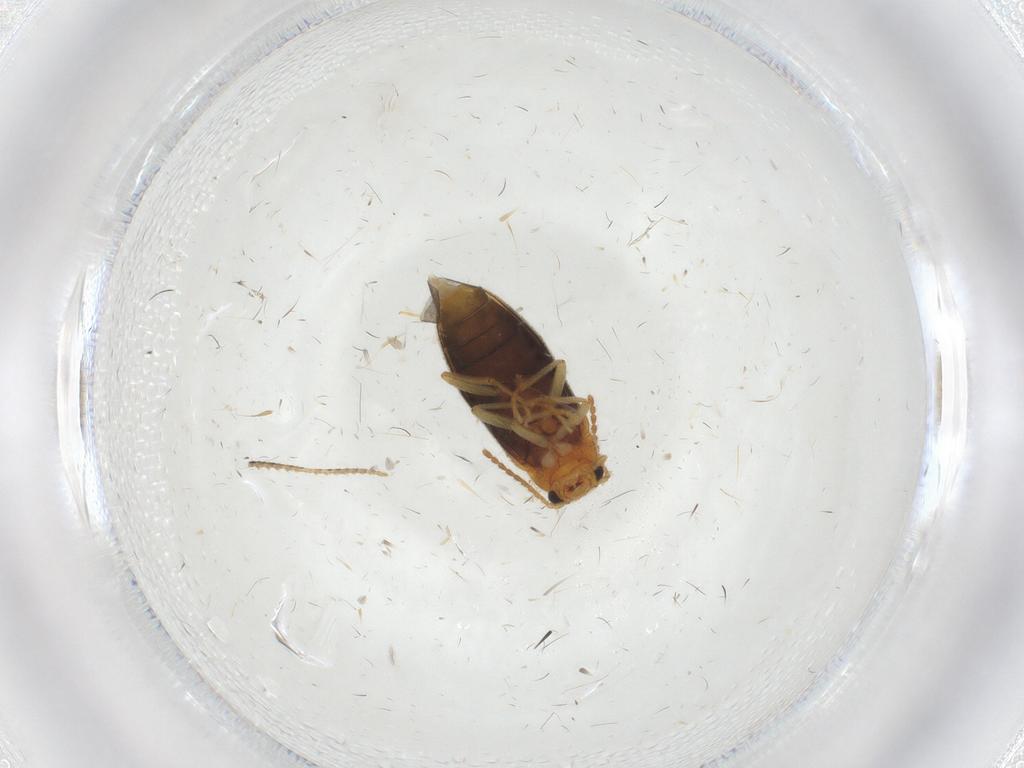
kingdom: Animalia
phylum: Arthropoda
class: Insecta
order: Coleoptera
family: Melandryidae
